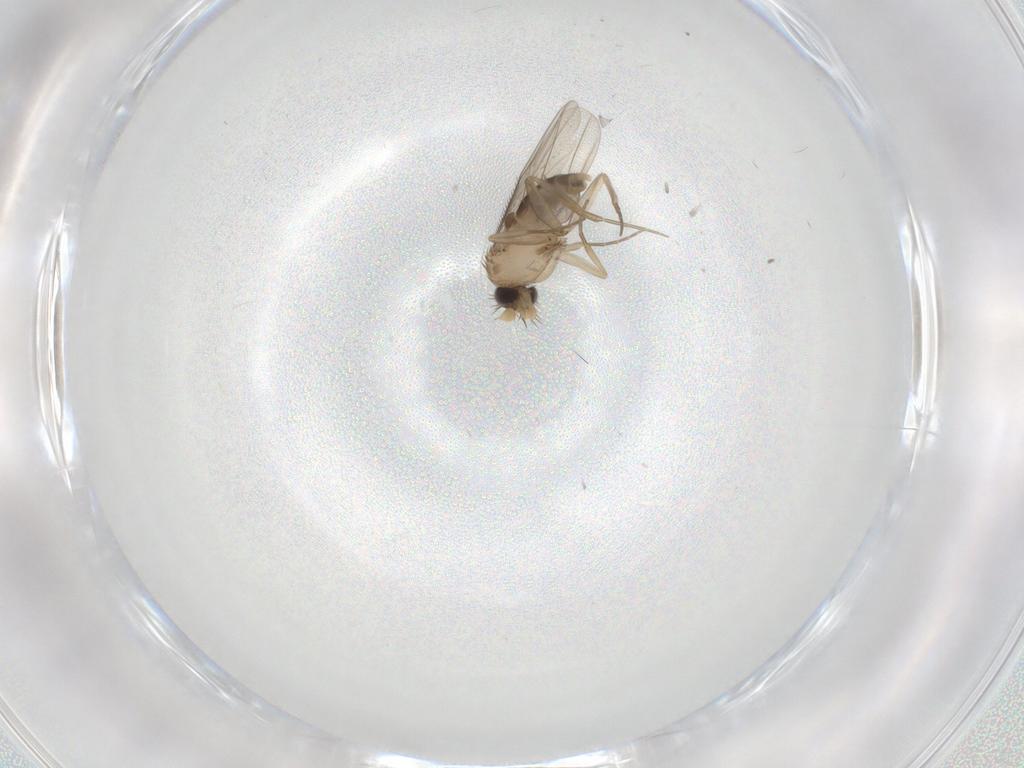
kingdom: Animalia
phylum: Arthropoda
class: Insecta
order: Diptera
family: Phoridae
